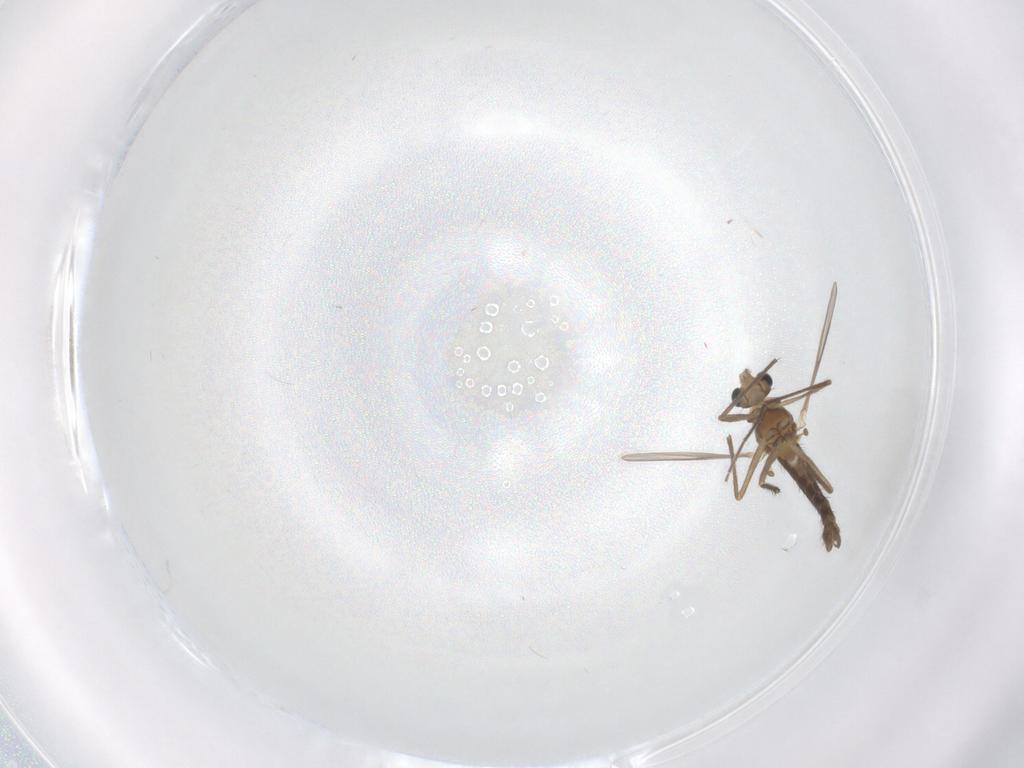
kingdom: Animalia
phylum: Arthropoda
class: Insecta
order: Diptera
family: Chironomidae
